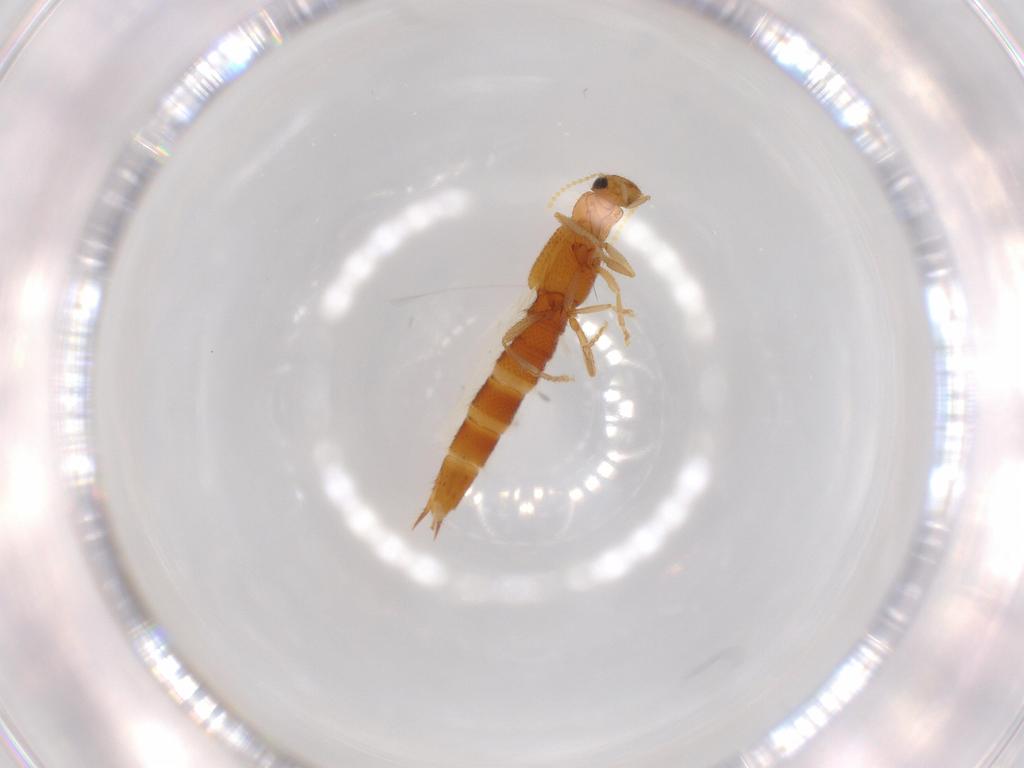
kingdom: Animalia
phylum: Arthropoda
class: Insecta
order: Coleoptera
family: Staphylinidae
